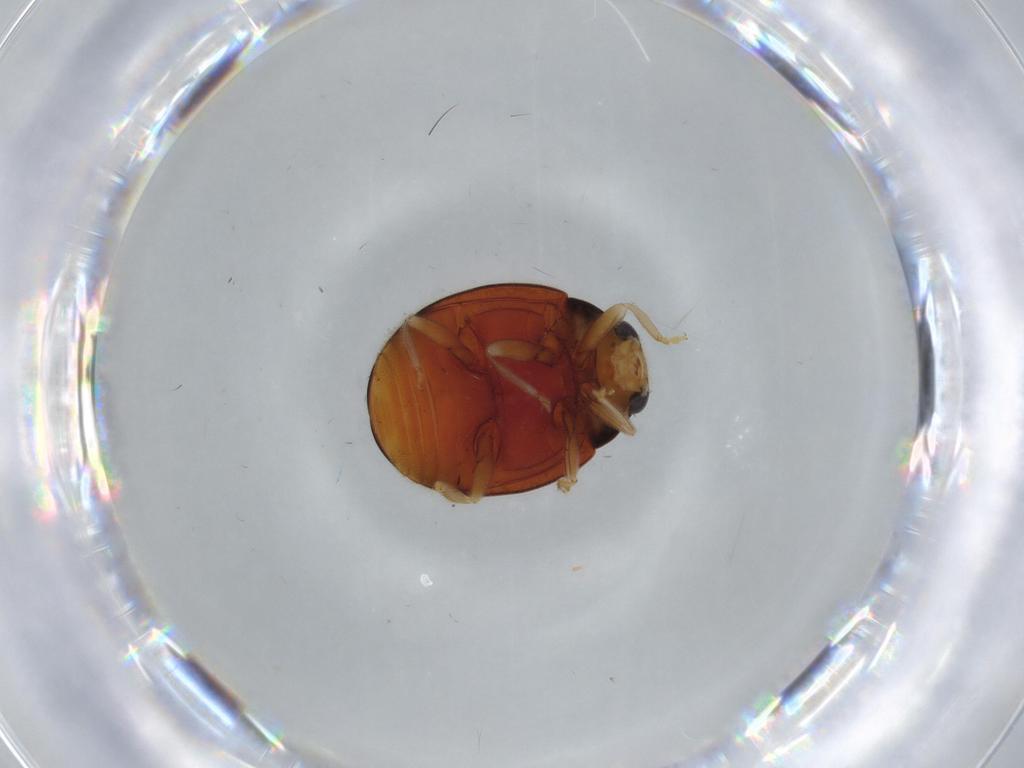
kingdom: Animalia
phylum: Arthropoda
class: Insecta
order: Coleoptera
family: Coccinellidae
